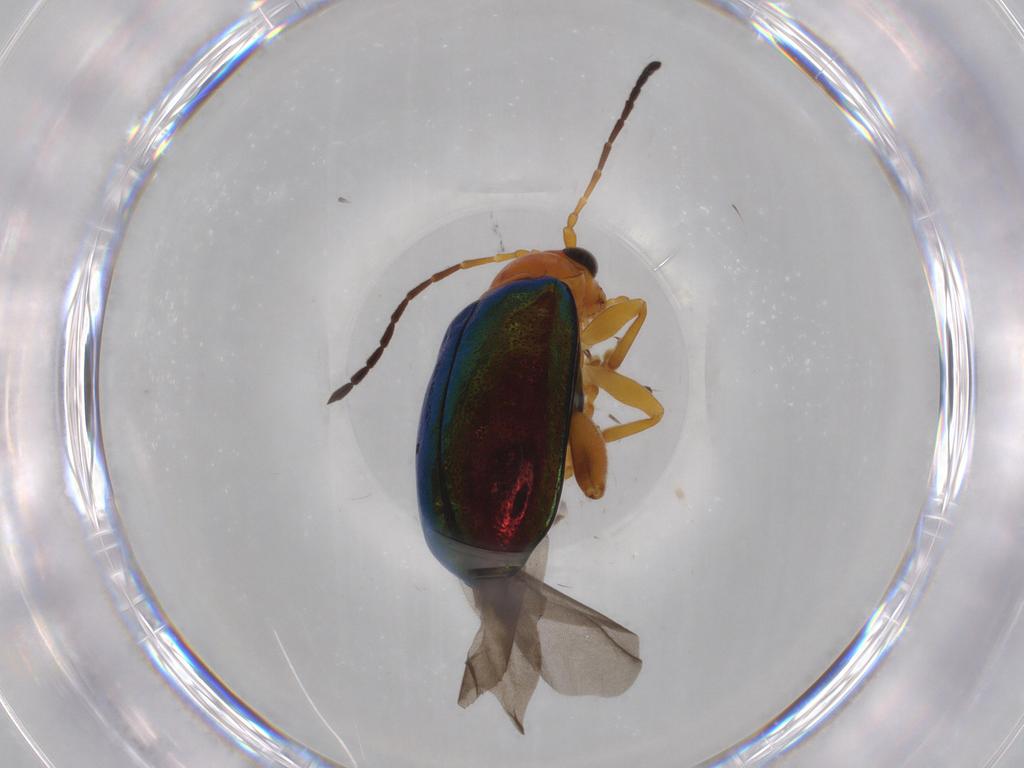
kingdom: Animalia
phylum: Arthropoda
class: Insecta
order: Coleoptera
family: Chrysomelidae
